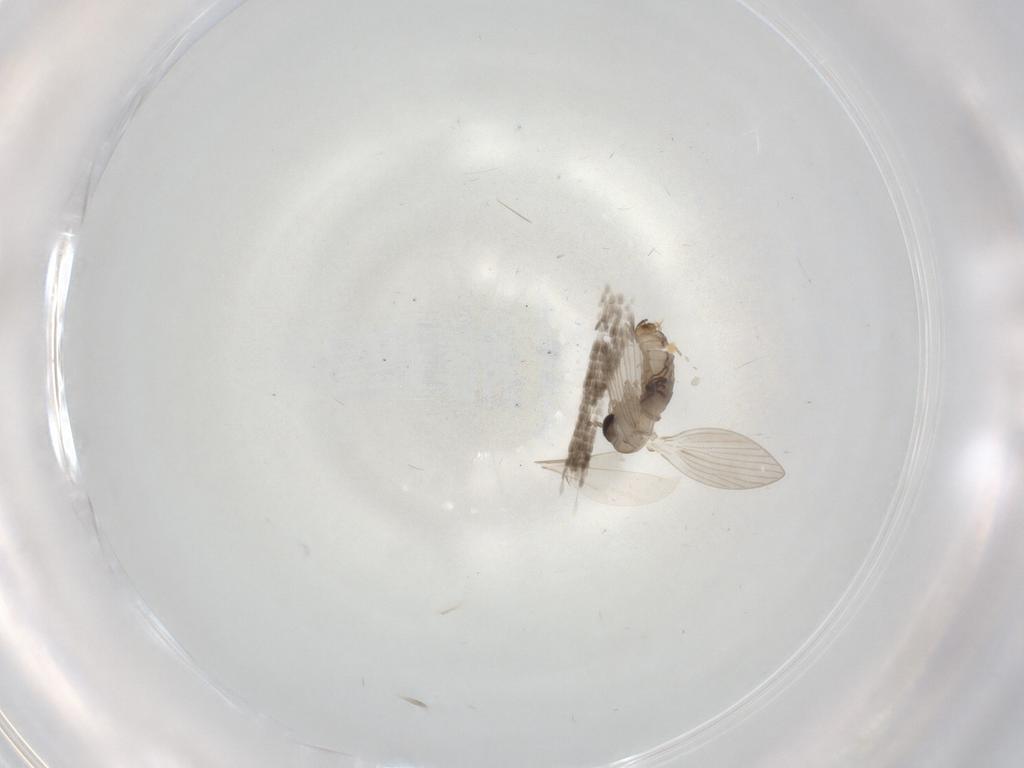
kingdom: Animalia
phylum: Arthropoda
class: Insecta
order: Diptera
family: Psychodidae
